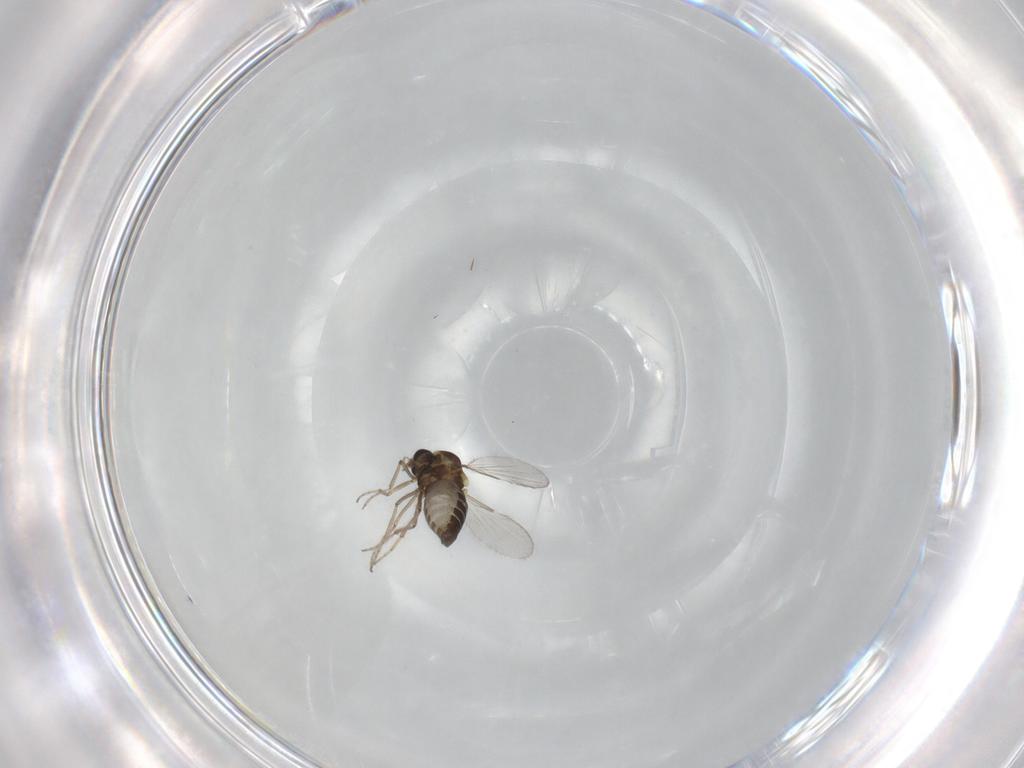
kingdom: Animalia
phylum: Arthropoda
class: Insecta
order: Diptera
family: Ceratopogonidae
